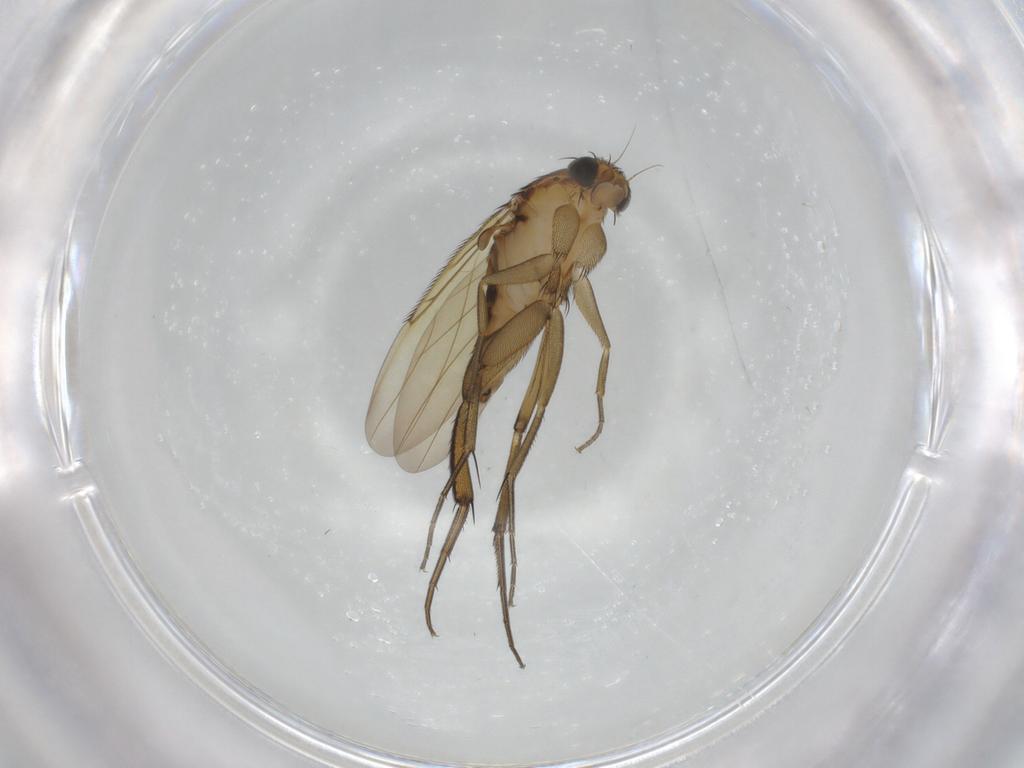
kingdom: Animalia
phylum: Arthropoda
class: Insecta
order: Diptera
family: Phoridae
